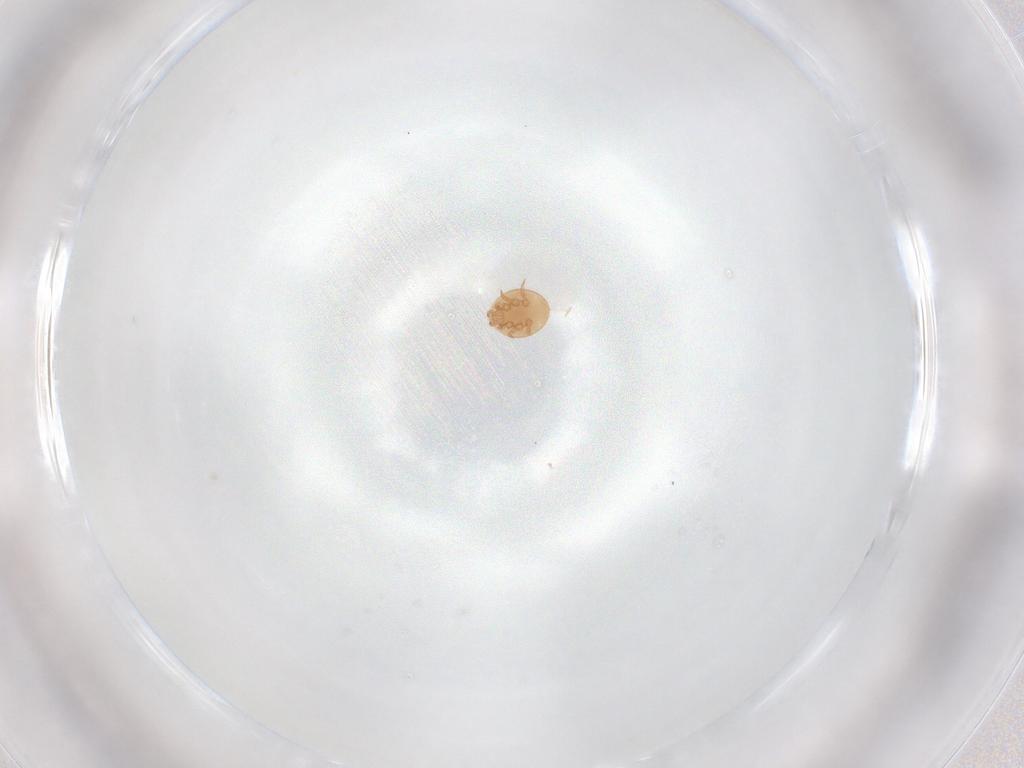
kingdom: Animalia
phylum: Arthropoda
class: Arachnida
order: Mesostigmata
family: Trematuridae
